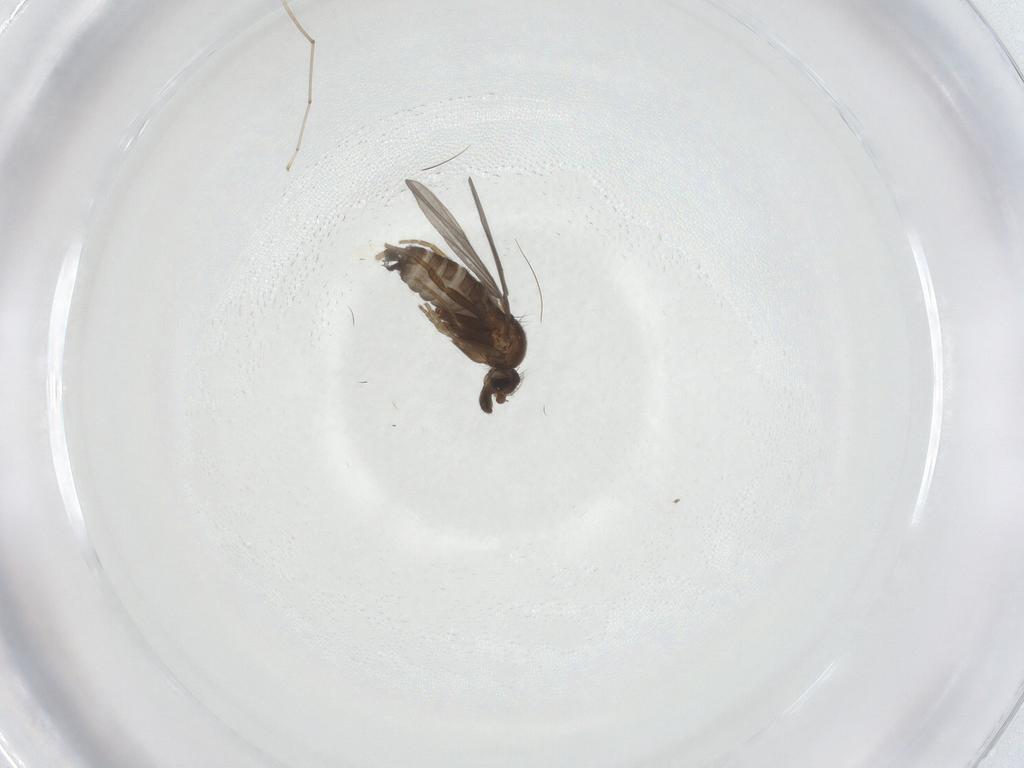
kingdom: Animalia
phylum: Arthropoda
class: Insecta
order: Diptera
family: Phoridae
